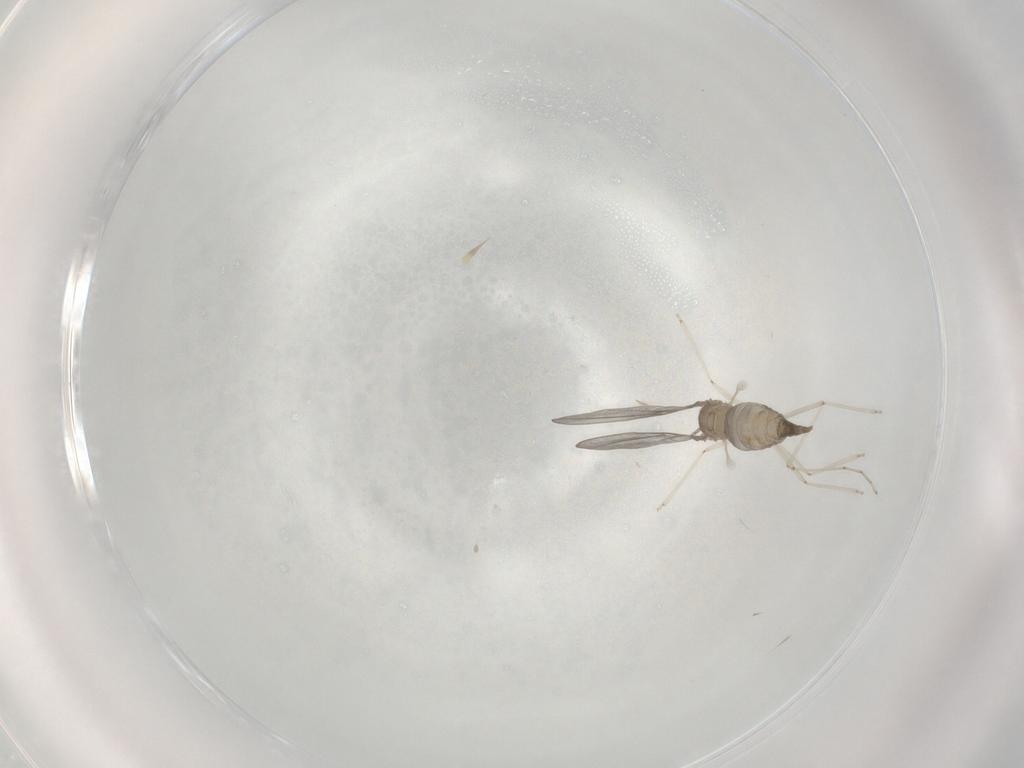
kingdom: Animalia
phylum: Arthropoda
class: Insecta
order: Diptera
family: Cecidomyiidae
